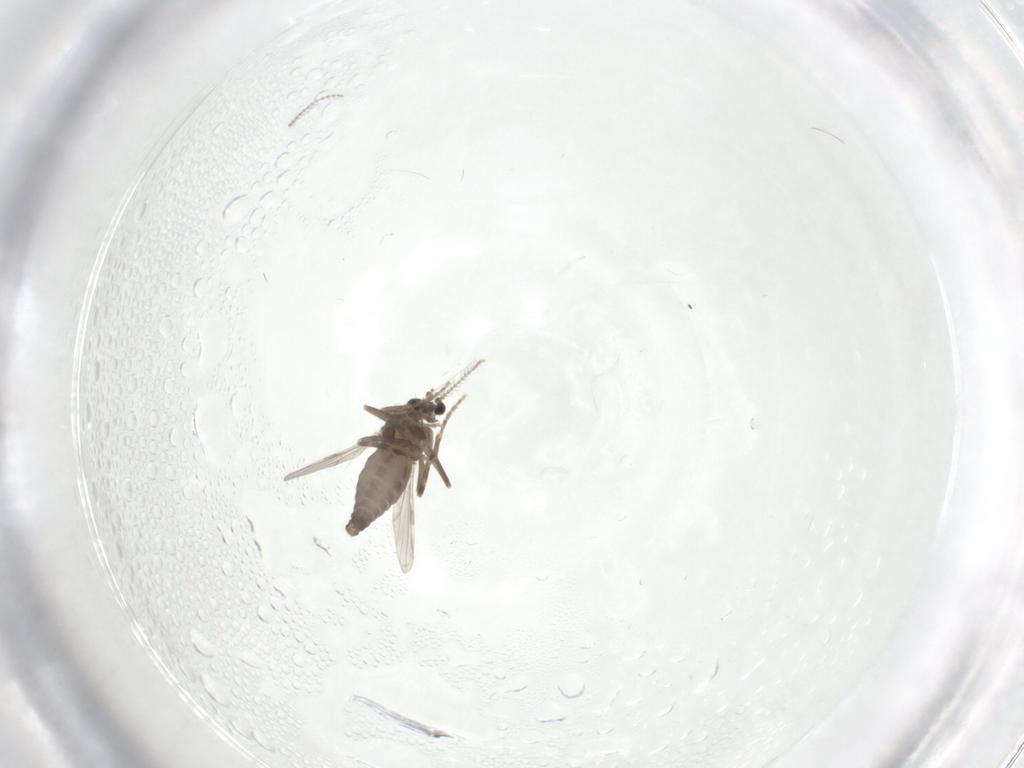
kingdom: Animalia
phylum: Arthropoda
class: Insecta
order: Diptera
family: Ceratopogonidae
